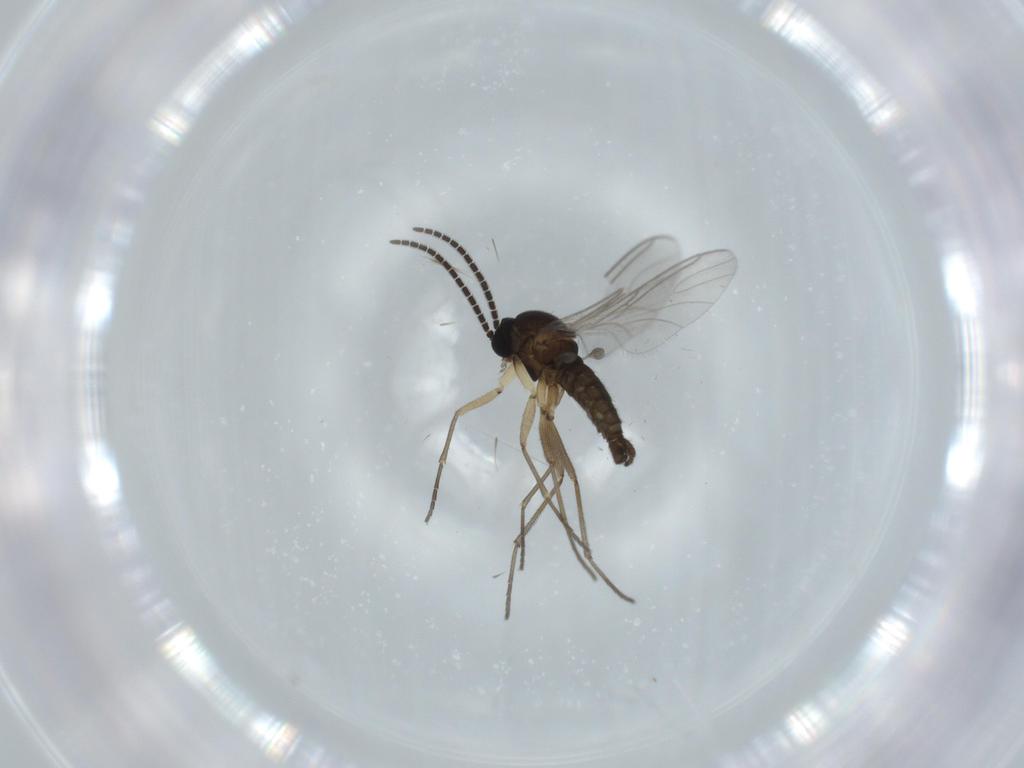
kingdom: Animalia
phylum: Arthropoda
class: Insecta
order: Diptera
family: Sciaridae
